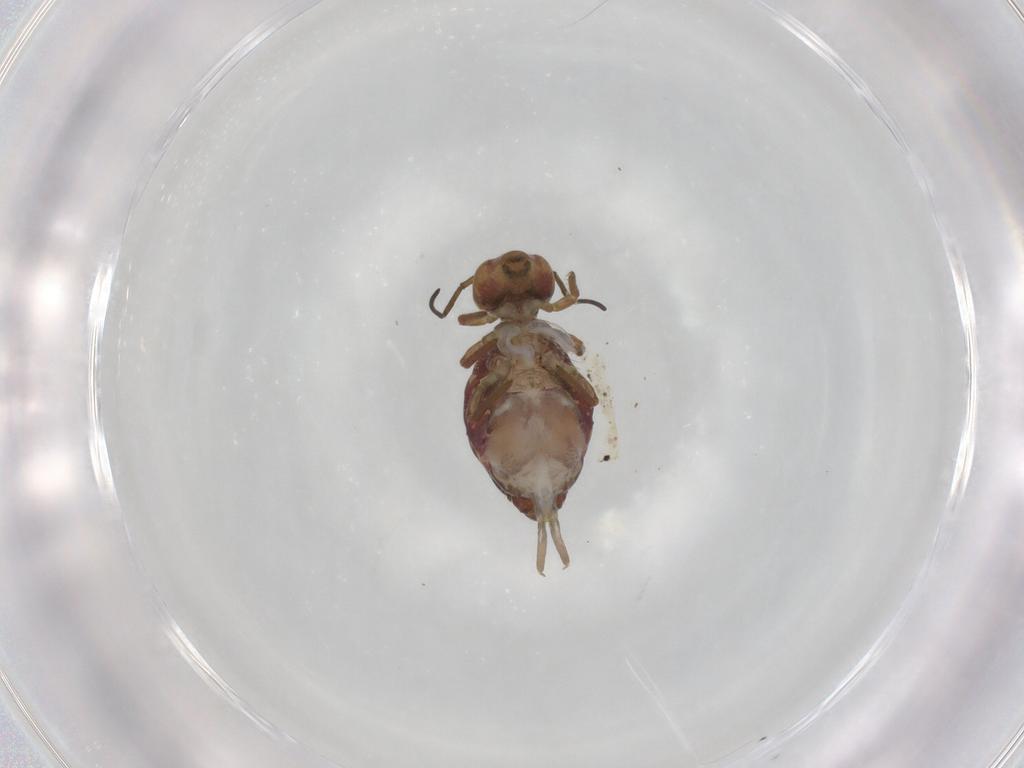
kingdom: Animalia
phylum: Arthropoda
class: Collembola
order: Symphypleona
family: Sminthuridae
